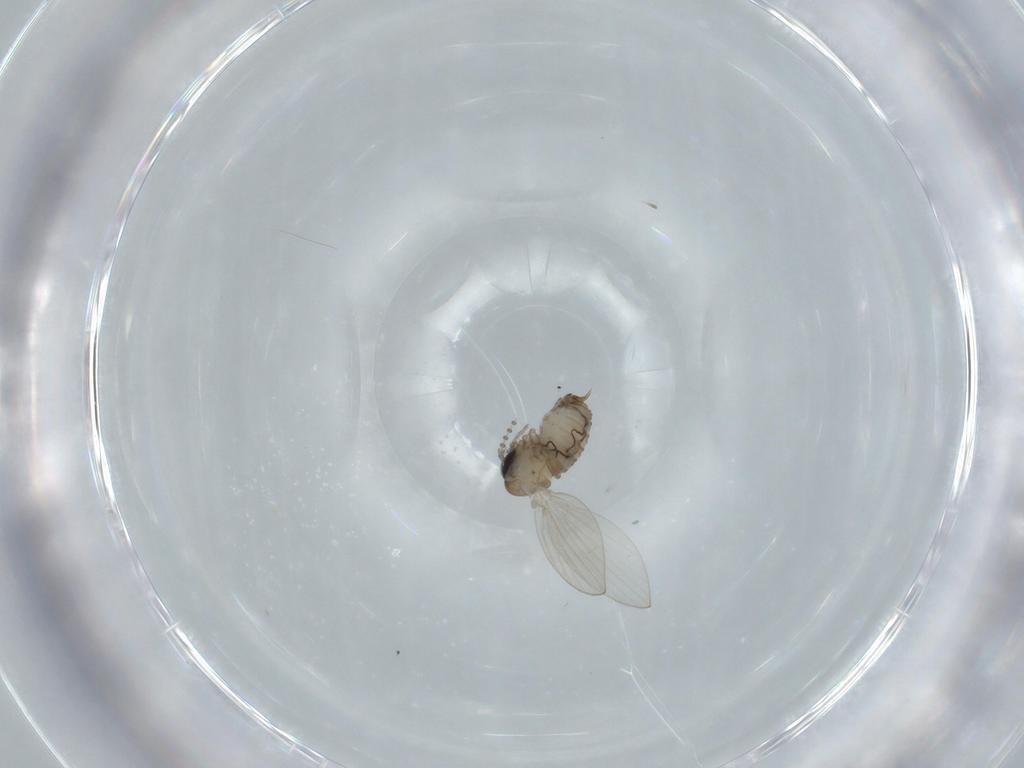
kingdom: Animalia
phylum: Arthropoda
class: Insecta
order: Diptera
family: Psychodidae
